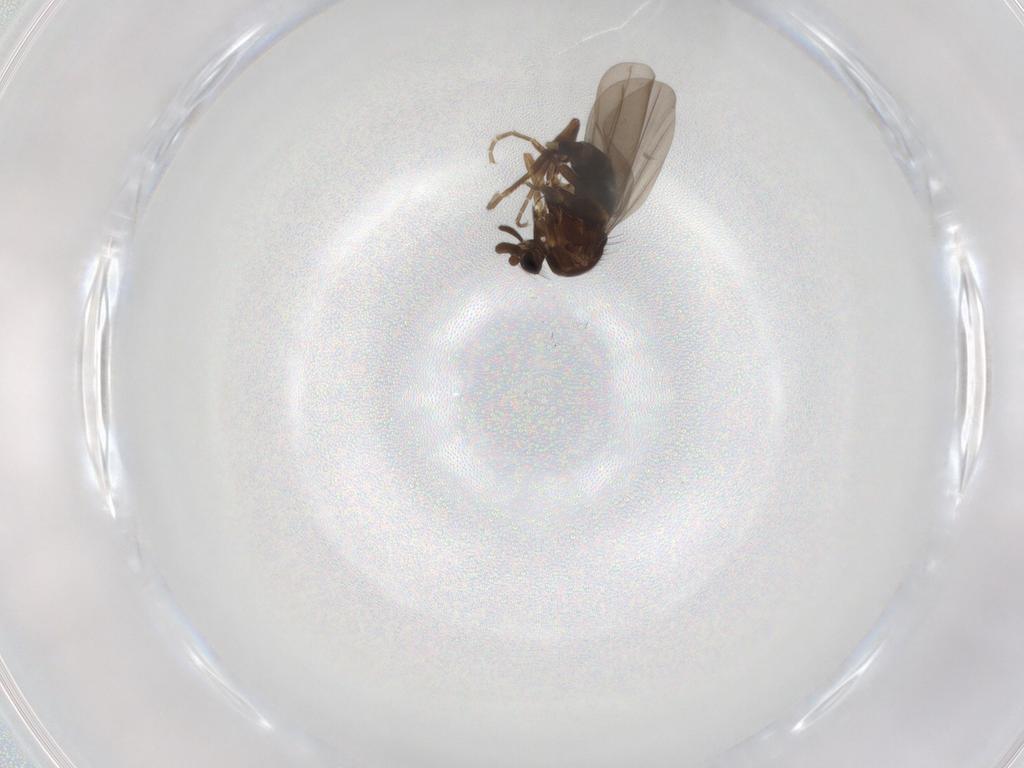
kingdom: Animalia
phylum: Arthropoda
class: Insecta
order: Diptera
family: Phoridae
